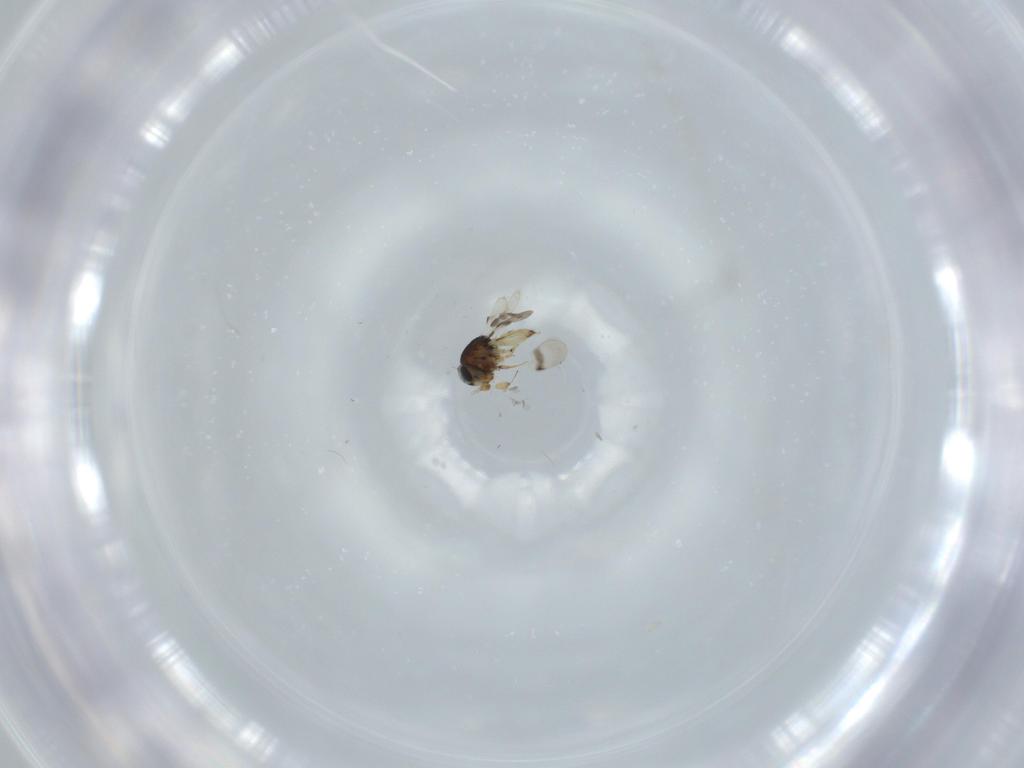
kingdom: Animalia
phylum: Arthropoda
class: Insecta
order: Hymenoptera
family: Scelionidae
